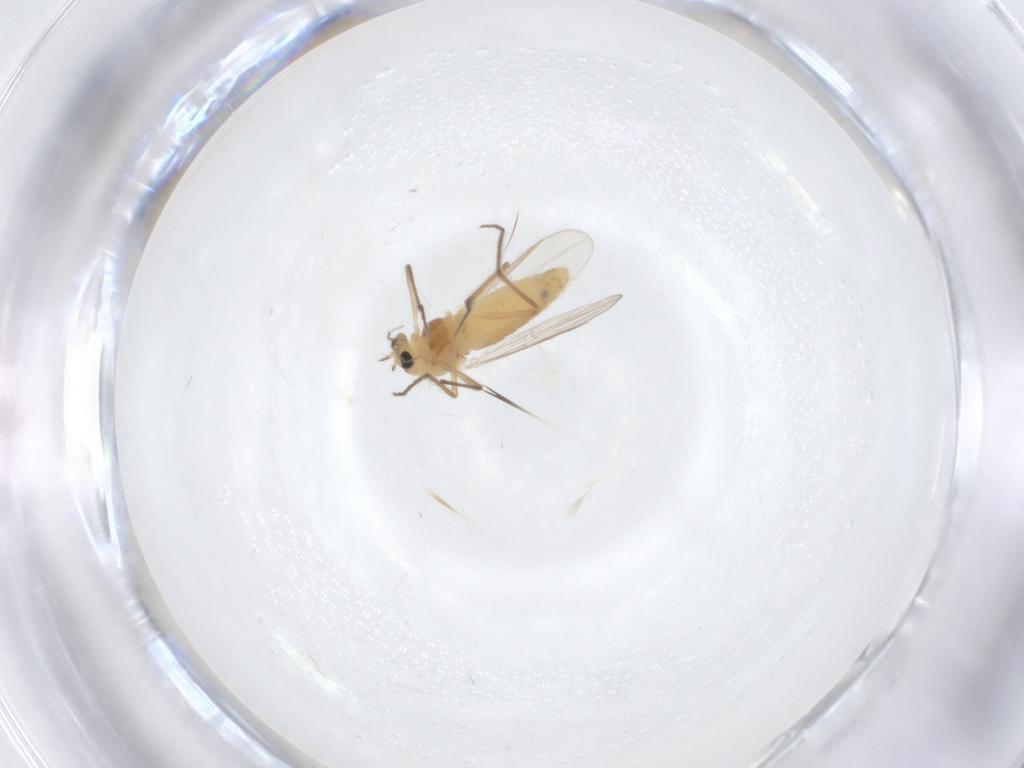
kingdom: Animalia
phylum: Arthropoda
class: Insecta
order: Diptera
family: Chironomidae
